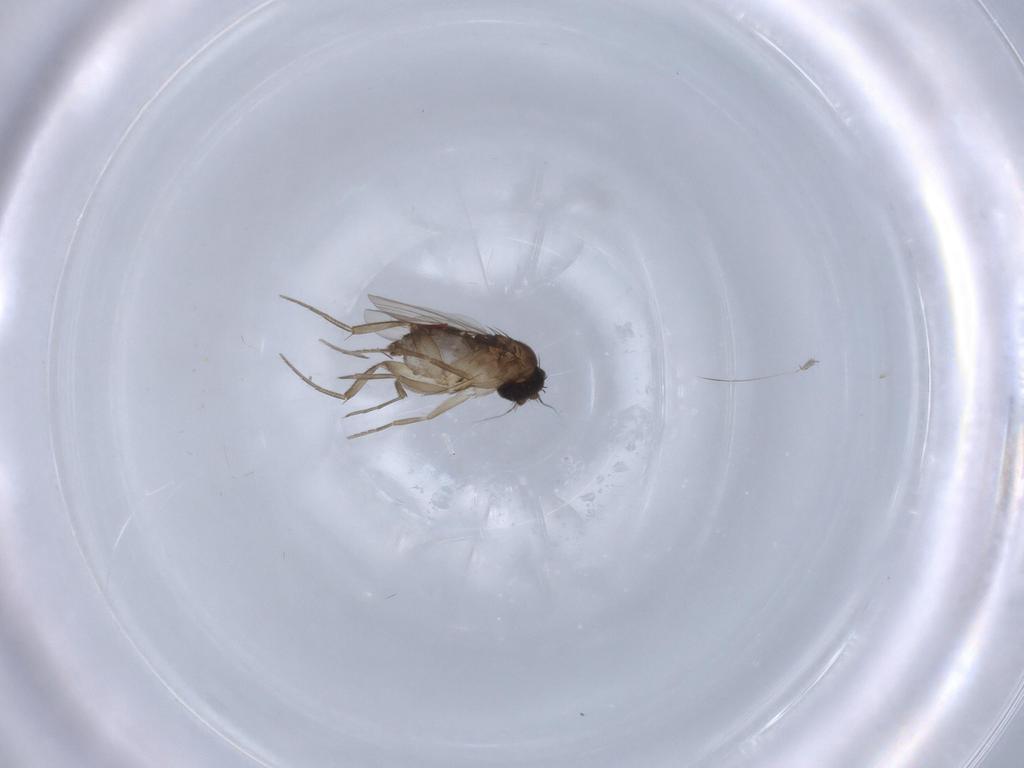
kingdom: Animalia
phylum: Arthropoda
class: Insecta
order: Diptera
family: Phoridae
